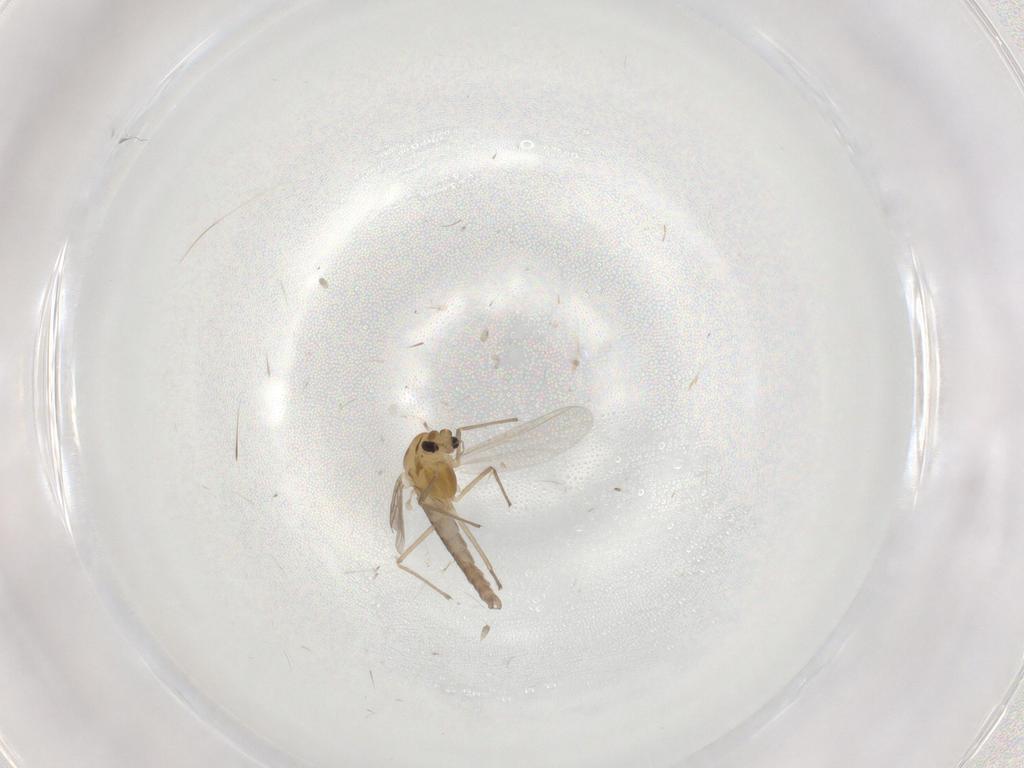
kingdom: Animalia
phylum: Arthropoda
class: Insecta
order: Diptera
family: Chironomidae
